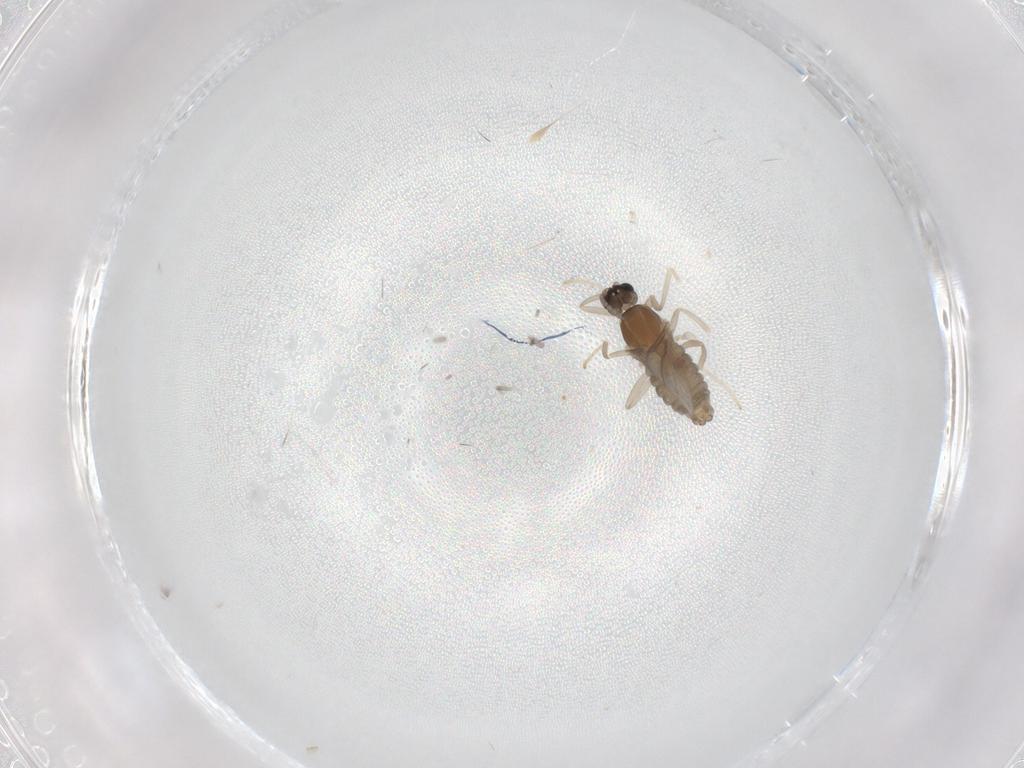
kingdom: Animalia
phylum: Arthropoda
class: Insecta
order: Diptera
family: Cecidomyiidae
